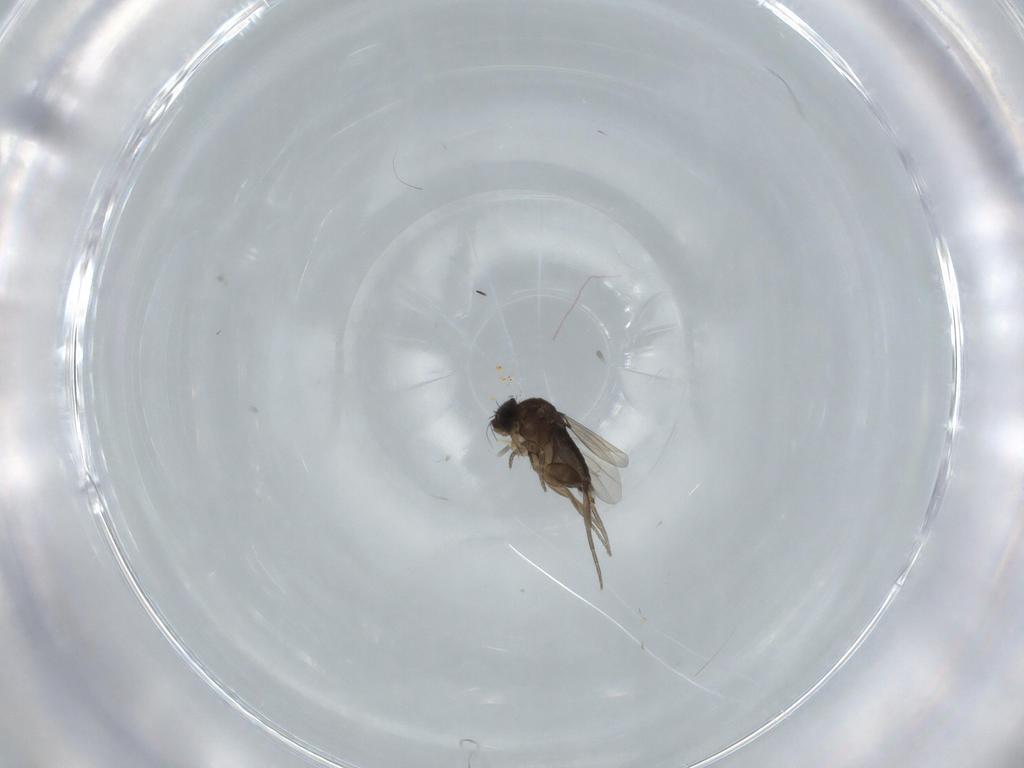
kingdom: Animalia
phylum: Arthropoda
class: Insecta
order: Diptera
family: Phoridae
